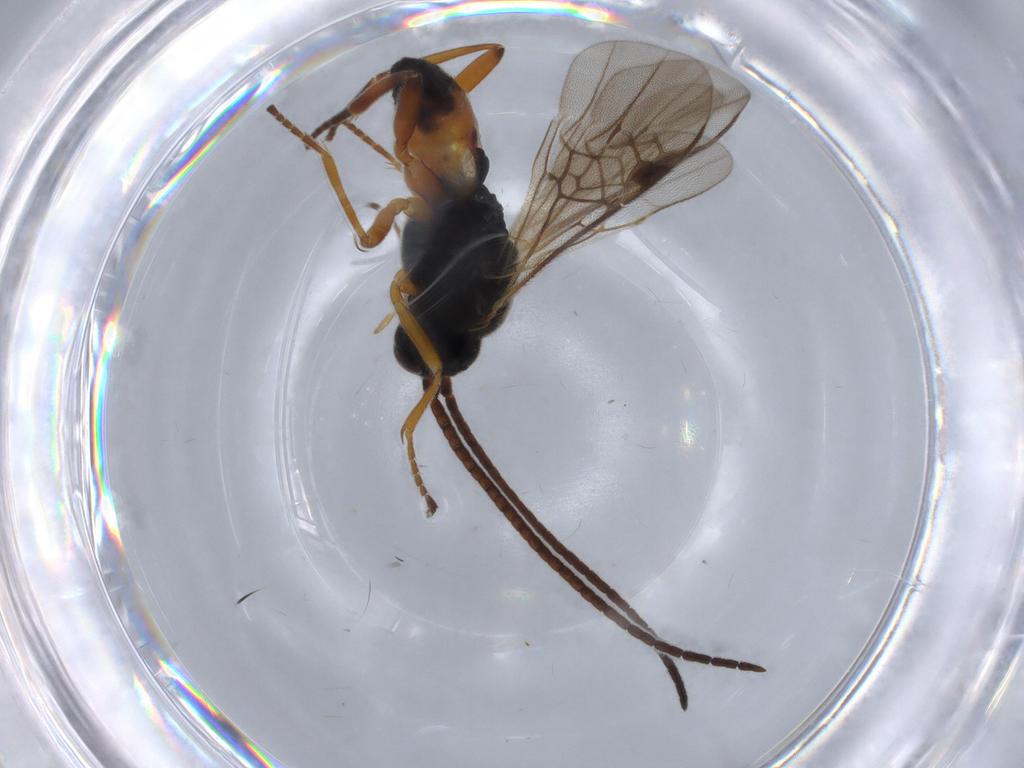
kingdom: Animalia
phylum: Arthropoda
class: Insecta
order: Hymenoptera
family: Braconidae
